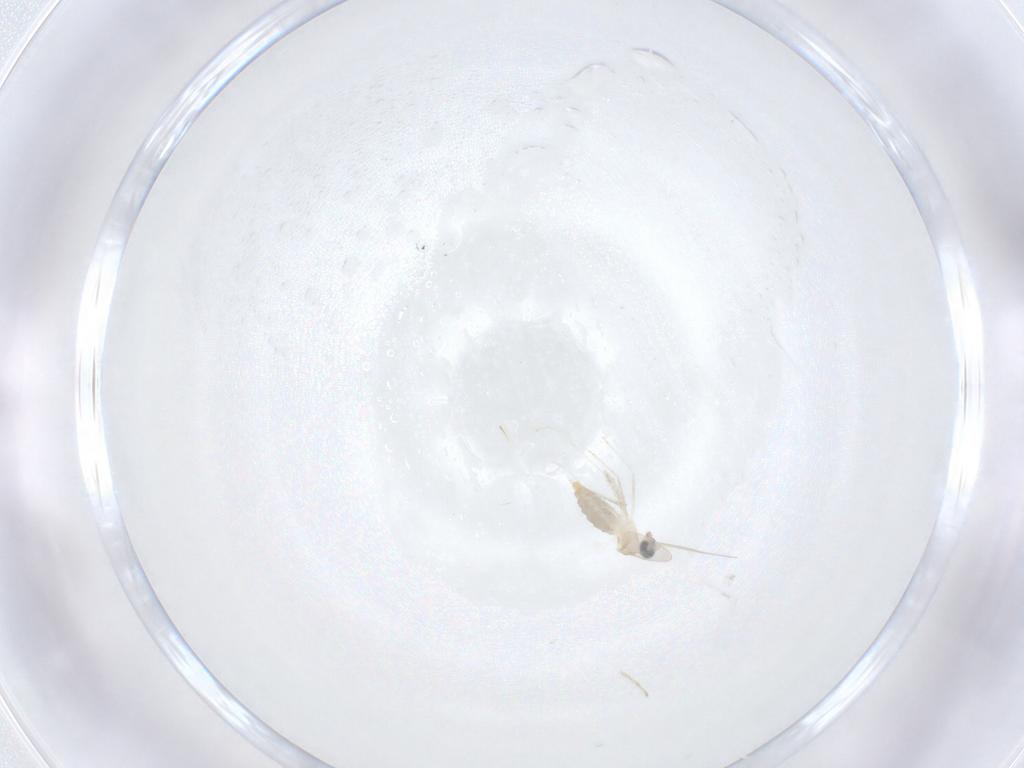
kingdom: Animalia
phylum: Arthropoda
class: Insecta
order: Diptera
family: Cecidomyiidae
